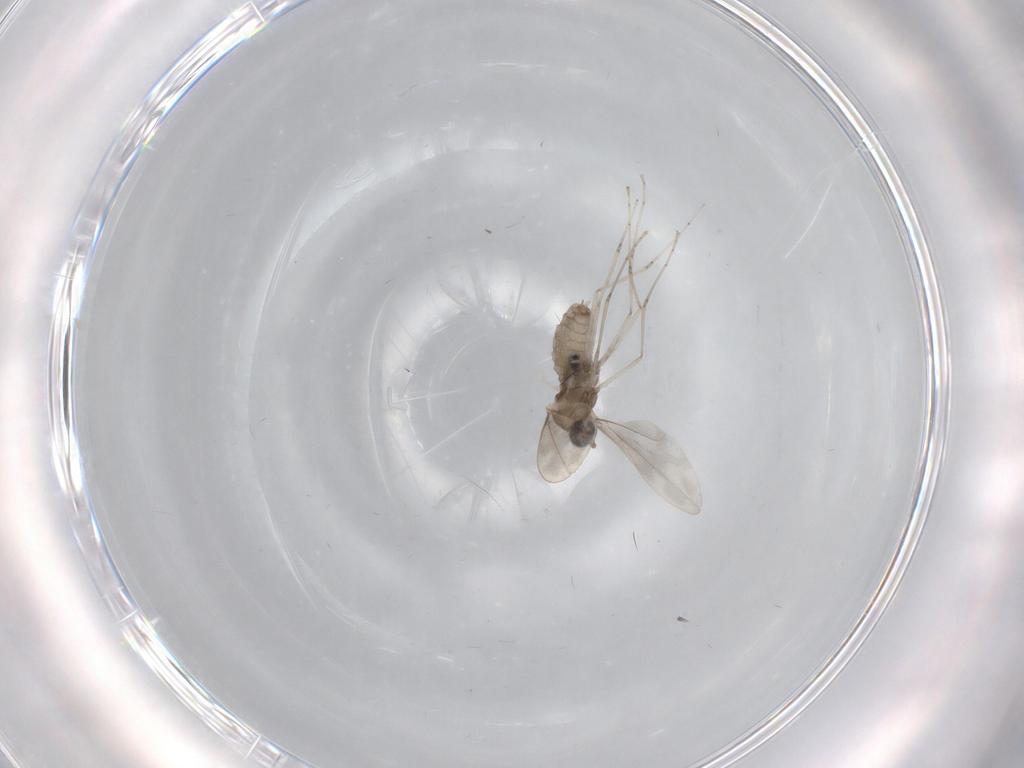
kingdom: Animalia
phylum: Arthropoda
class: Insecta
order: Diptera
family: Cecidomyiidae
